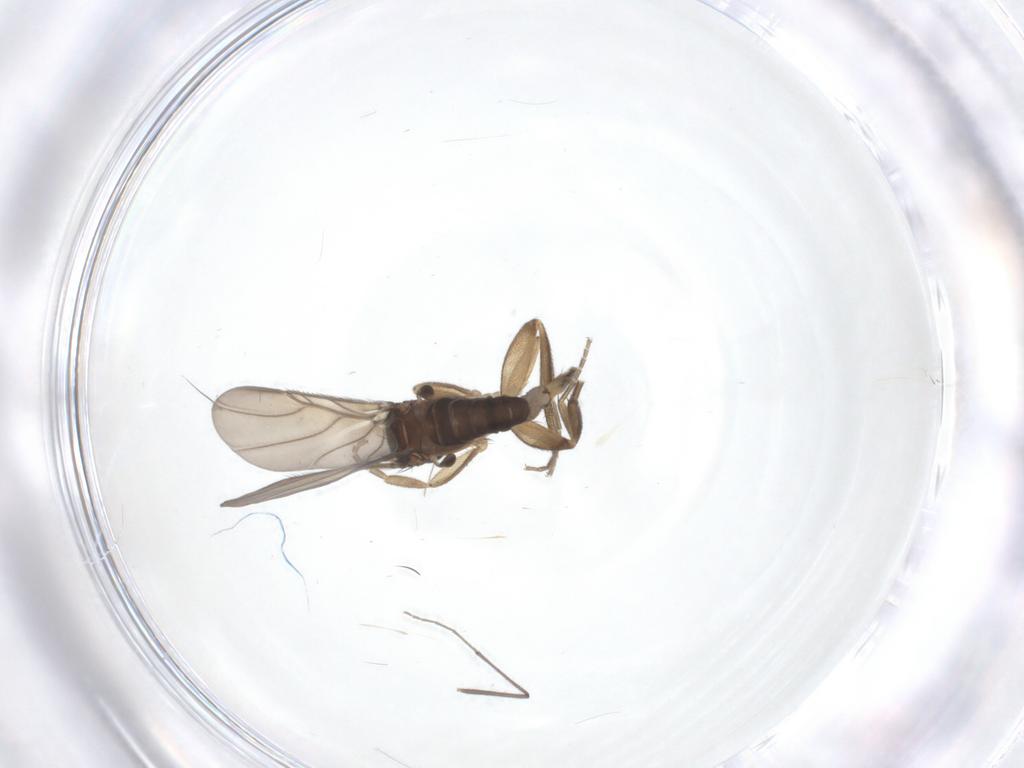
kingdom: Animalia
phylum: Arthropoda
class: Insecta
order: Diptera
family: Phoridae
